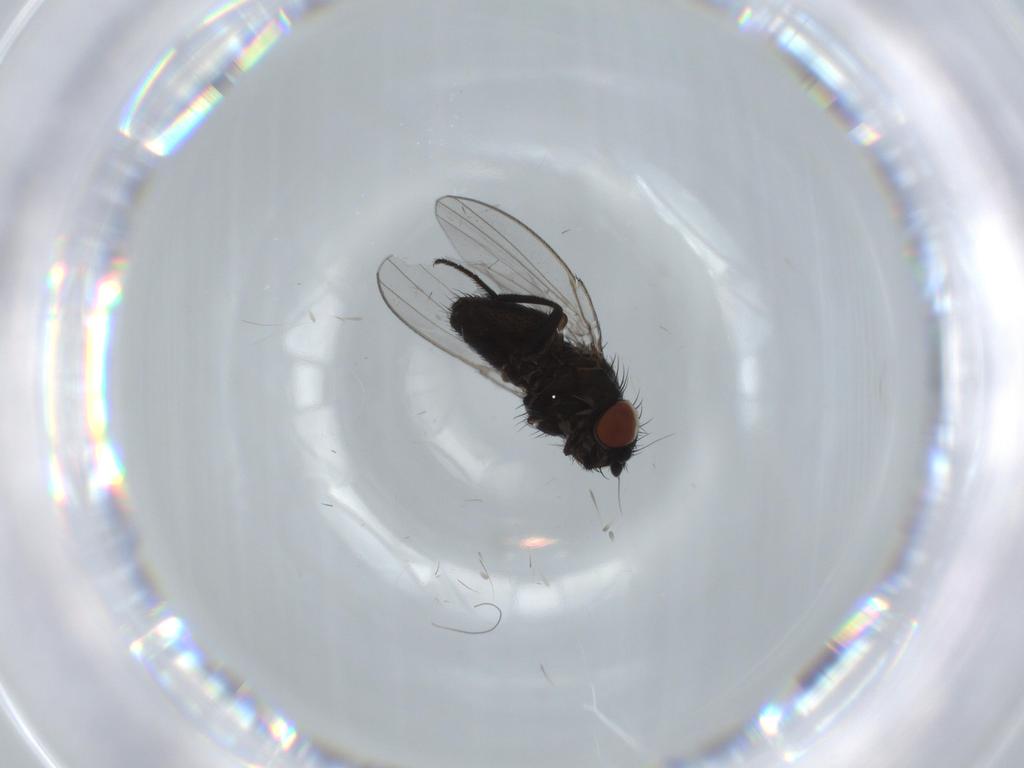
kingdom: Animalia
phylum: Arthropoda
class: Insecta
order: Diptera
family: Milichiidae
